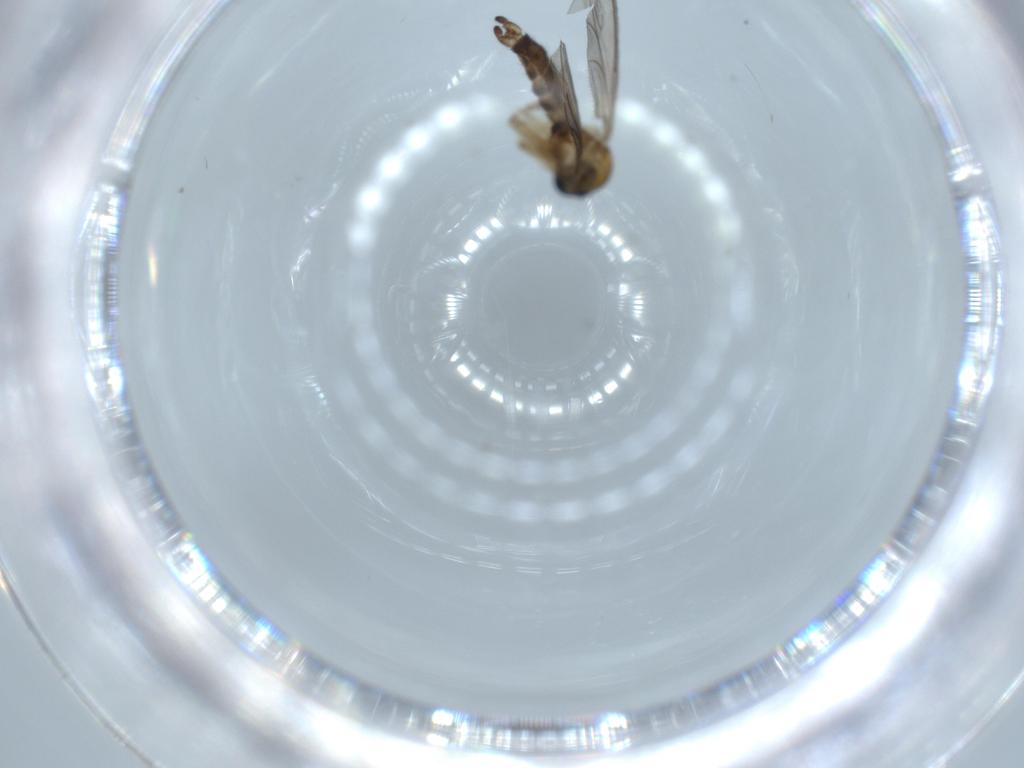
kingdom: Animalia
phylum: Arthropoda
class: Insecta
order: Diptera
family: Sciaridae
